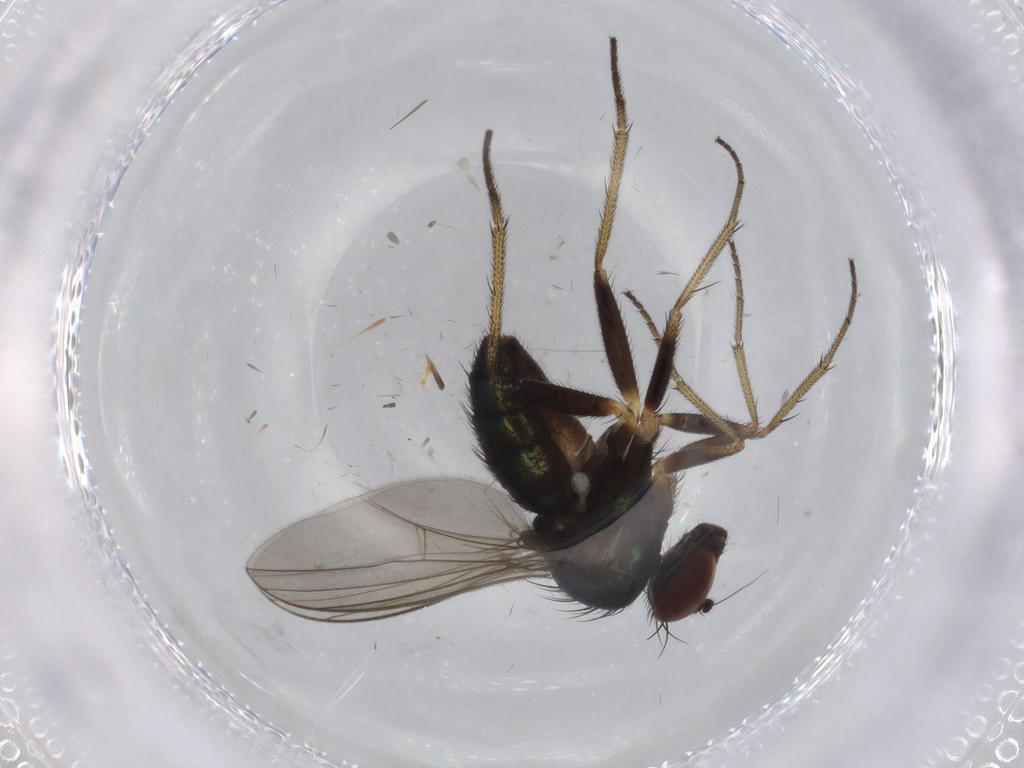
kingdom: Animalia
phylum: Arthropoda
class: Insecta
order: Diptera
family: Dolichopodidae
